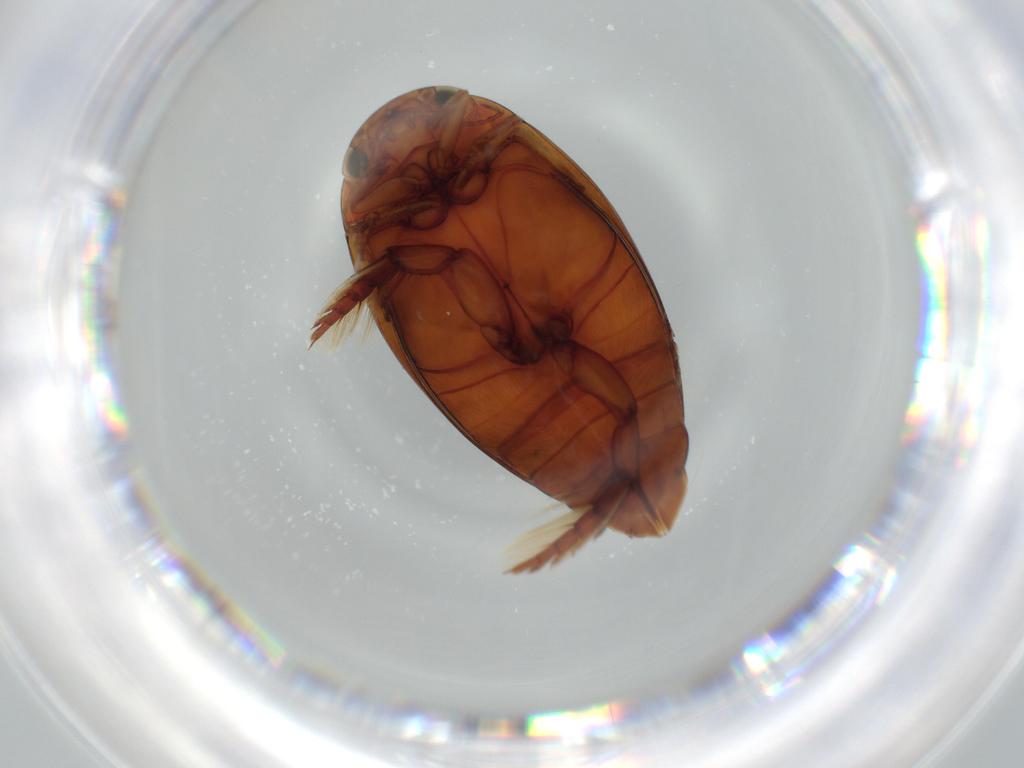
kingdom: Animalia
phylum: Arthropoda
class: Insecta
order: Coleoptera
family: Dytiscidae
